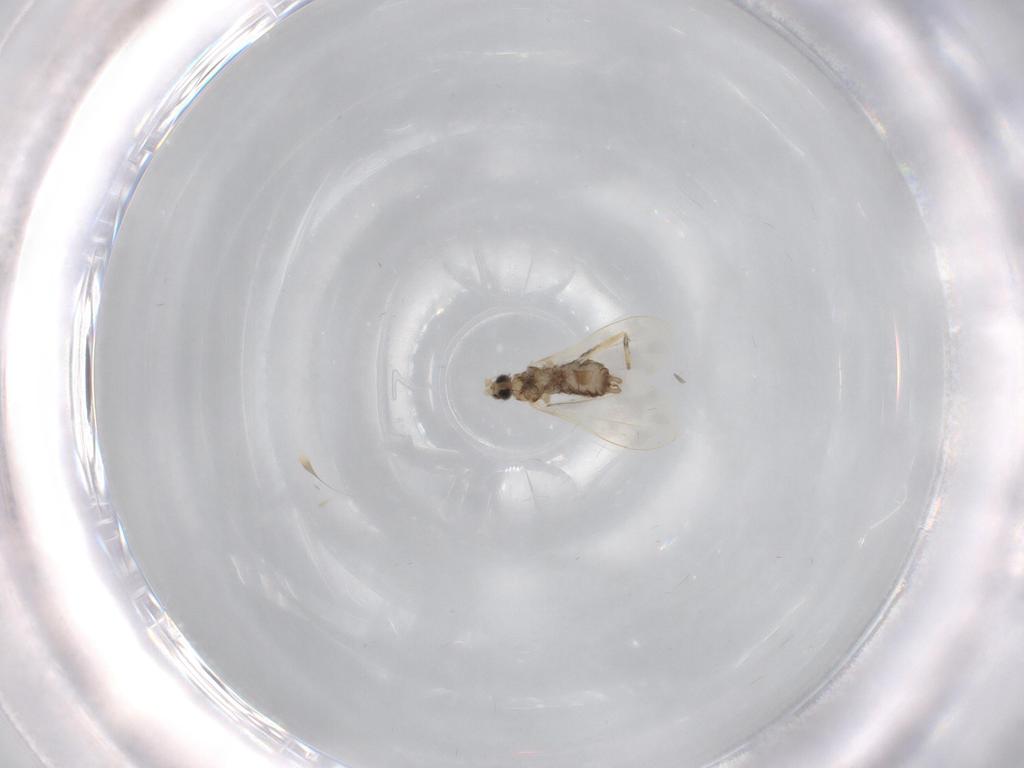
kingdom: Animalia
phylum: Arthropoda
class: Insecta
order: Diptera
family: Cecidomyiidae
